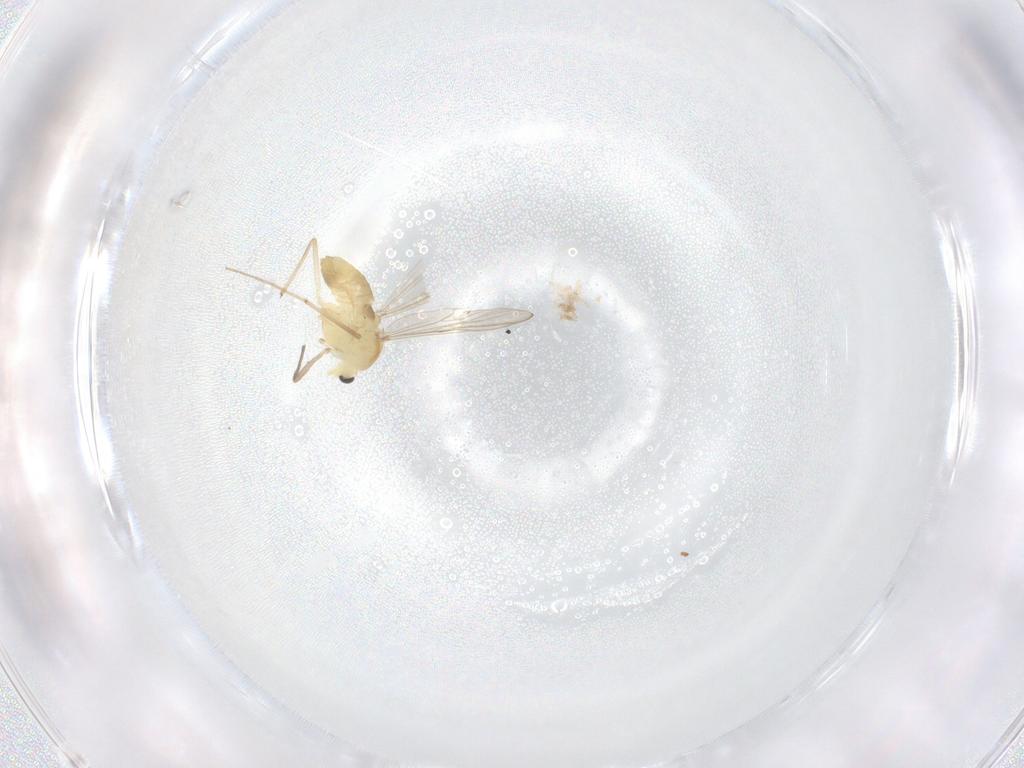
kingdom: Animalia
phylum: Arthropoda
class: Insecta
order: Diptera
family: Chironomidae
